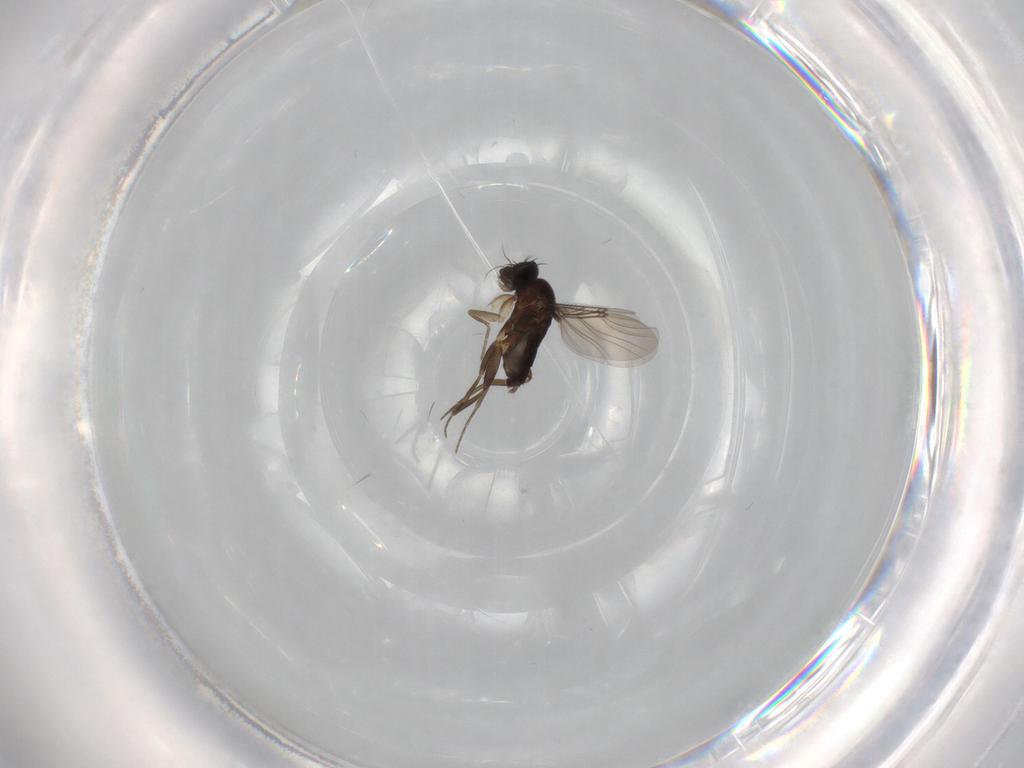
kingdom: Animalia
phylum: Arthropoda
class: Insecta
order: Diptera
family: Phoridae
